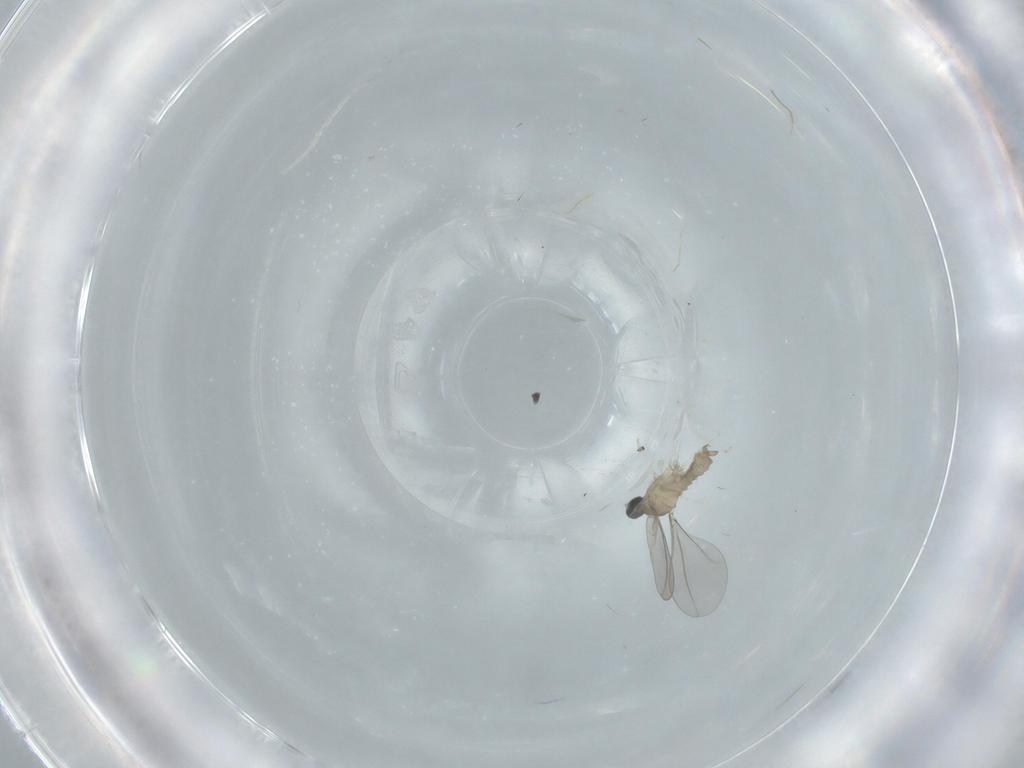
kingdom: Animalia
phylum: Arthropoda
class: Insecta
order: Diptera
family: Cecidomyiidae
